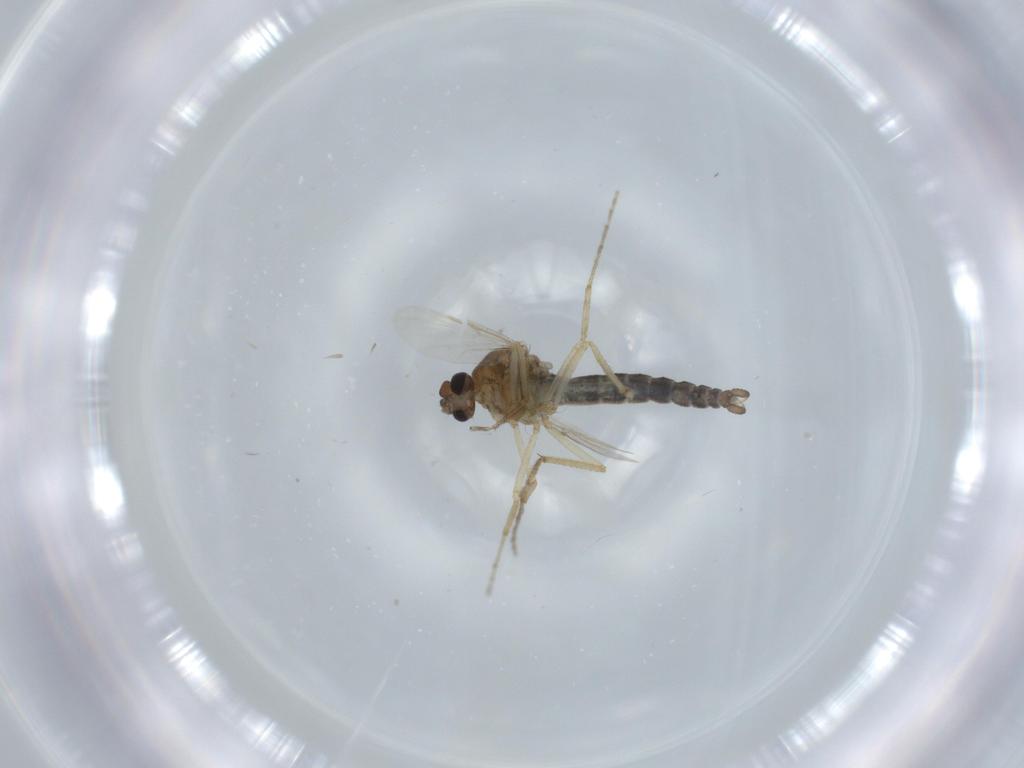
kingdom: Animalia
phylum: Arthropoda
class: Insecta
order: Diptera
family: Ceratopogonidae
